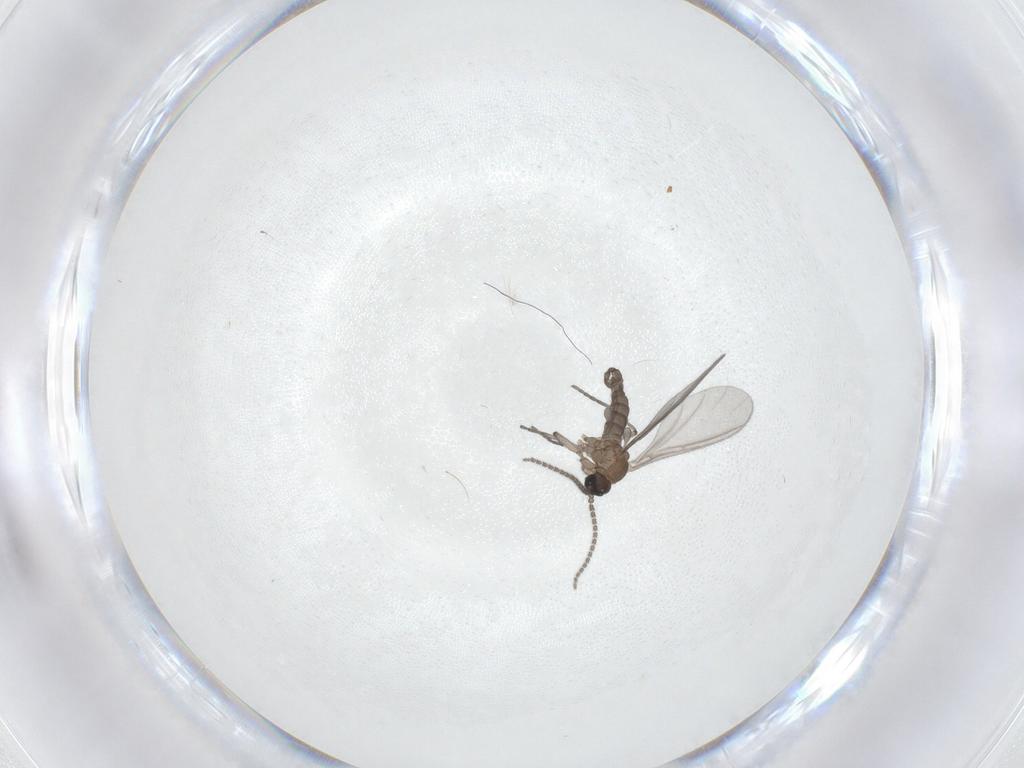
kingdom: Animalia
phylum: Arthropoda
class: Insecta
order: Diptera
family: Sciaridae
